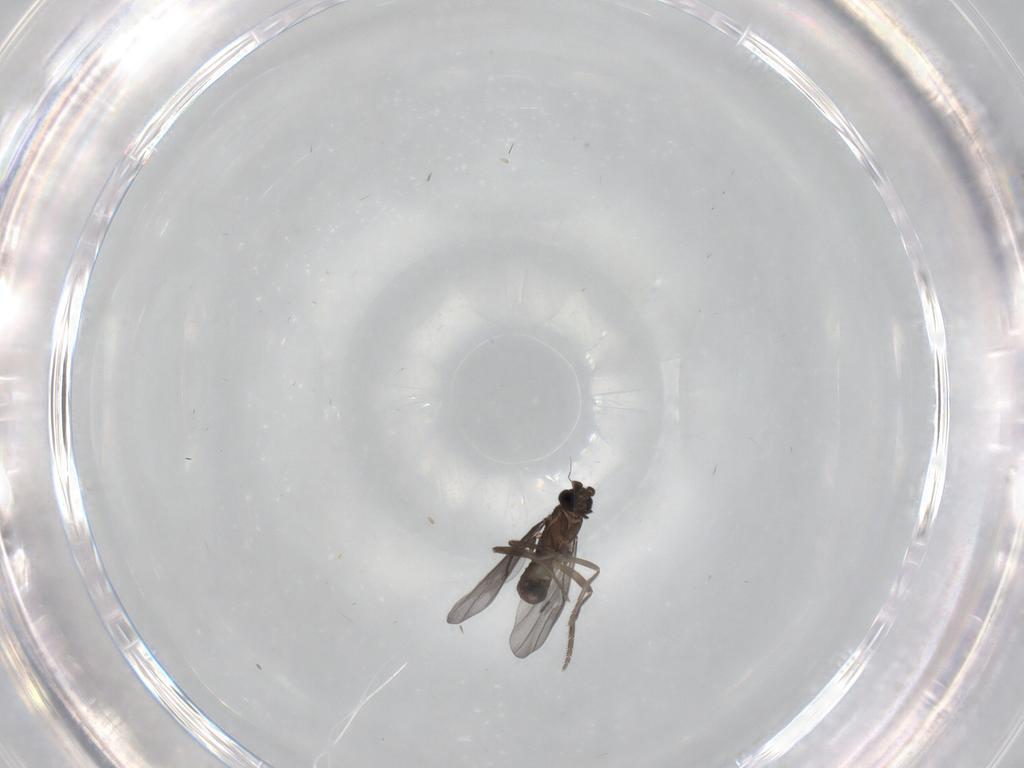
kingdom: Animalia
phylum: Arthropoda
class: Insecta
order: Diptera
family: Phoridae
